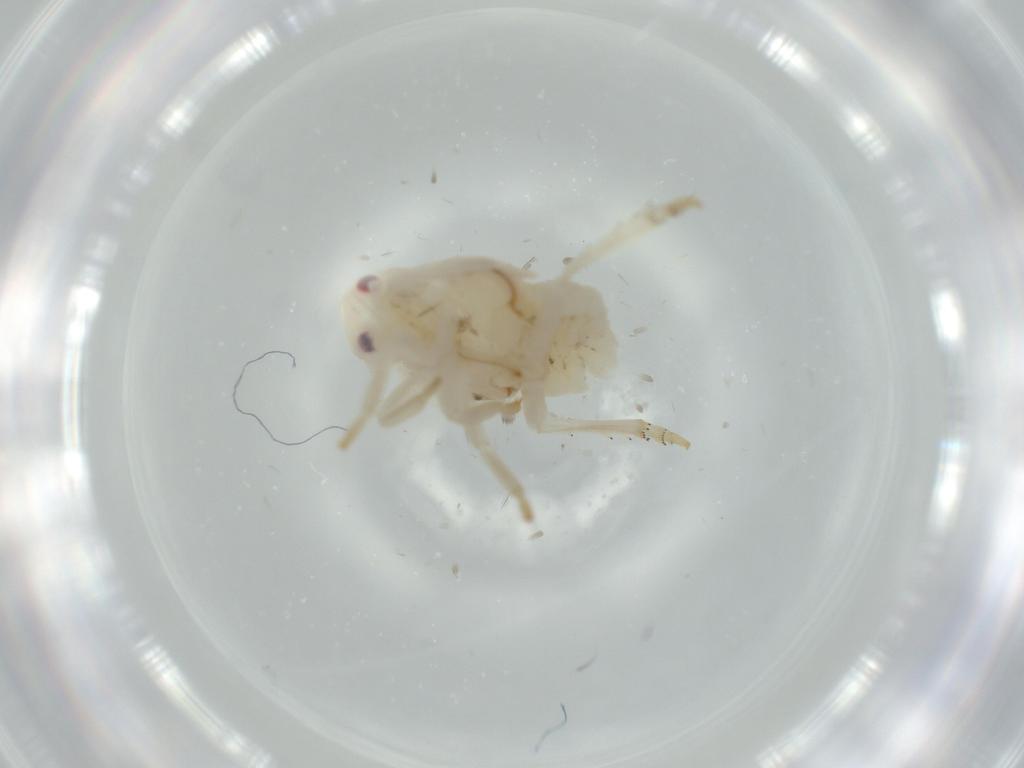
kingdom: Animalia
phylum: Arthropoda
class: Insecta
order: Hemiptera
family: Flatidae
